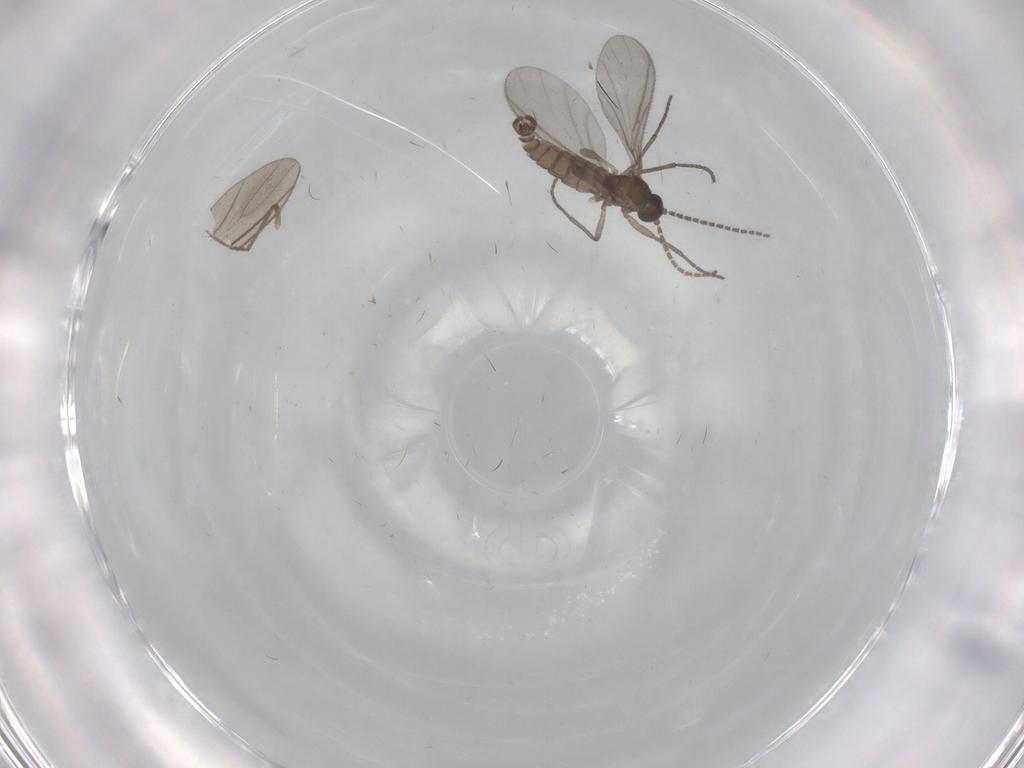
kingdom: Animalia
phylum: Arthropoda
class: Insecta
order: Diptera
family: Sciaridae
